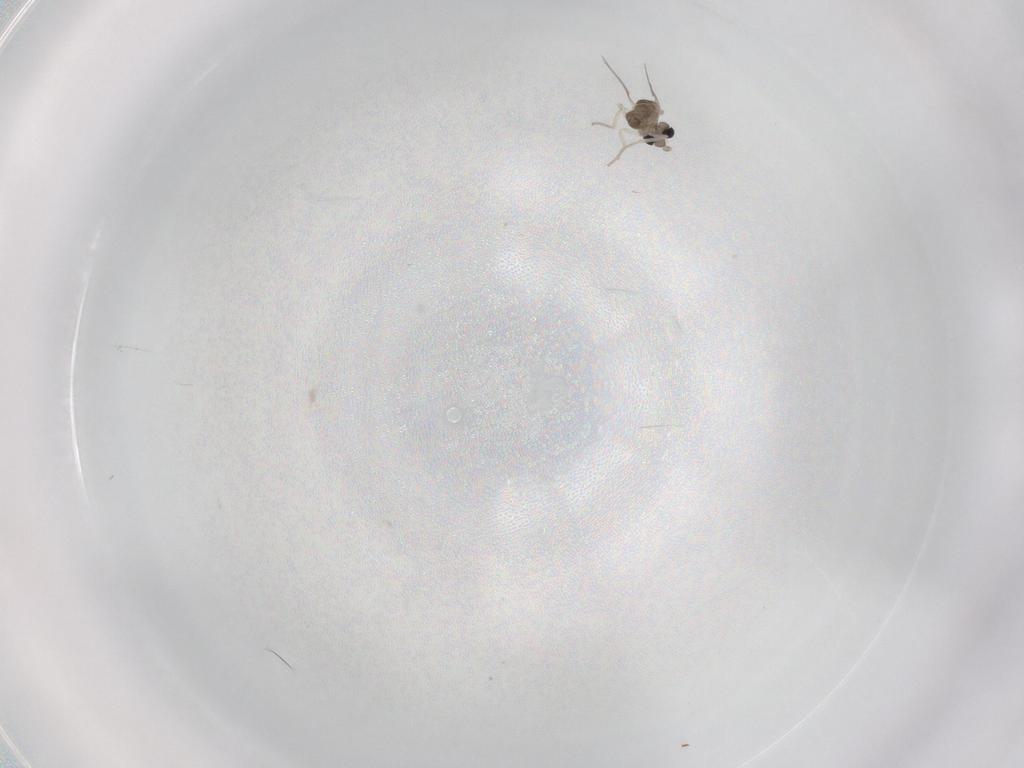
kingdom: Animalia
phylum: Arthropoda
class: Insecta
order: Diptera
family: Cecidomyiidae
